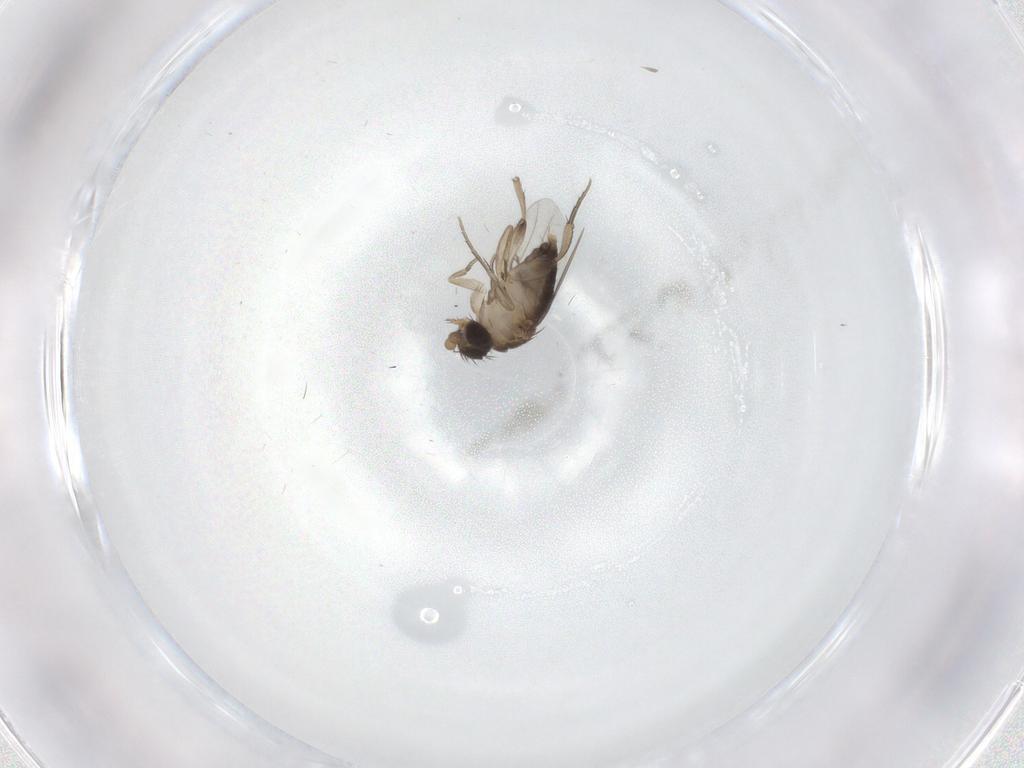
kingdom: Animalia
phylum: Arthropoda
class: Insecta
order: Diptera
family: Phoridae
